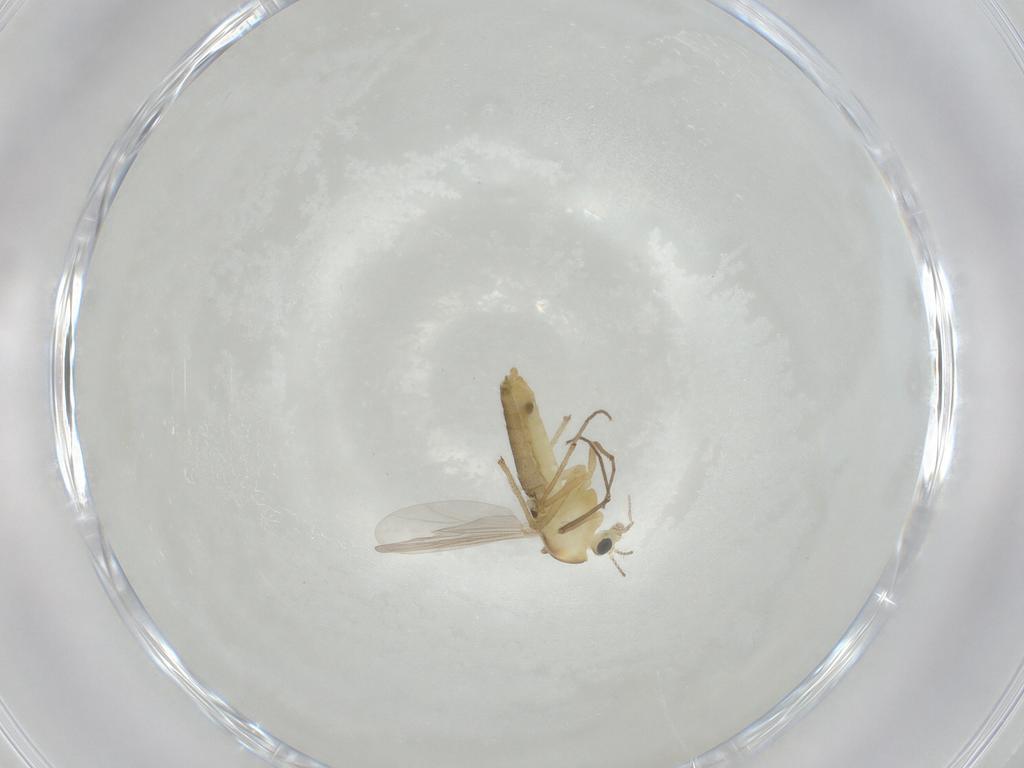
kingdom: Animalia
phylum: Arthropoda
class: Insecta
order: Diptera
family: Chironomidae
